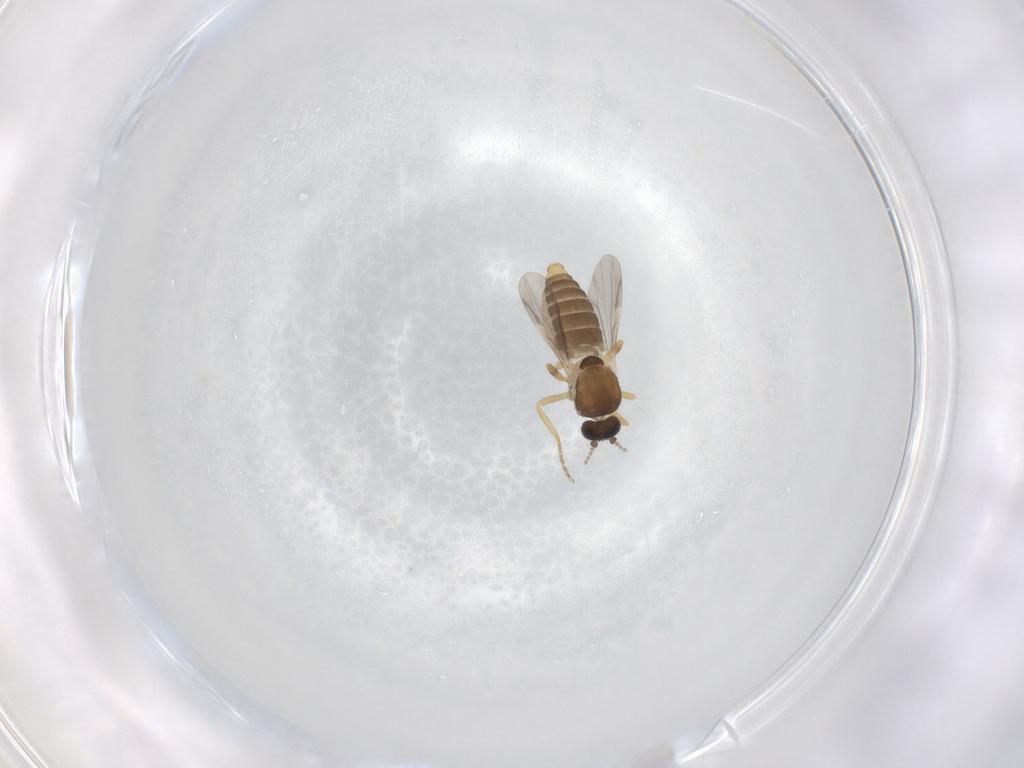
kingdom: Animalia
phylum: Arthropoda
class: Insecta
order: Diptera
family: Ceratopogonidae
